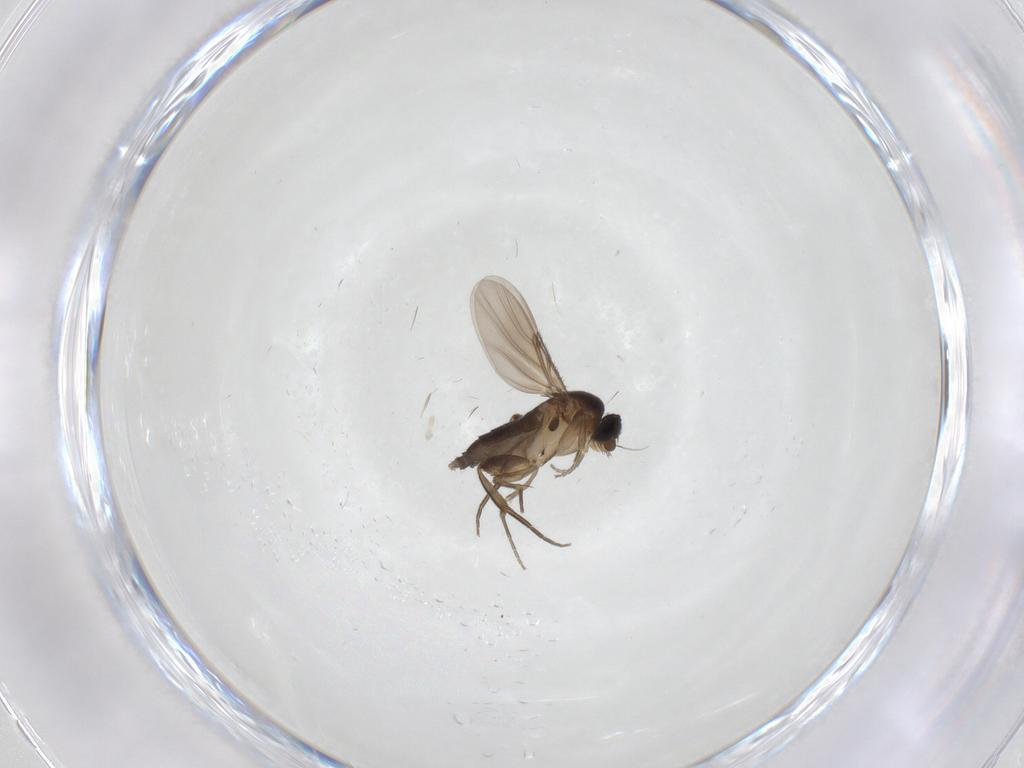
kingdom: Animalia
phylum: Arthropoda
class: Insecta
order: Diptera
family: Phoridae
